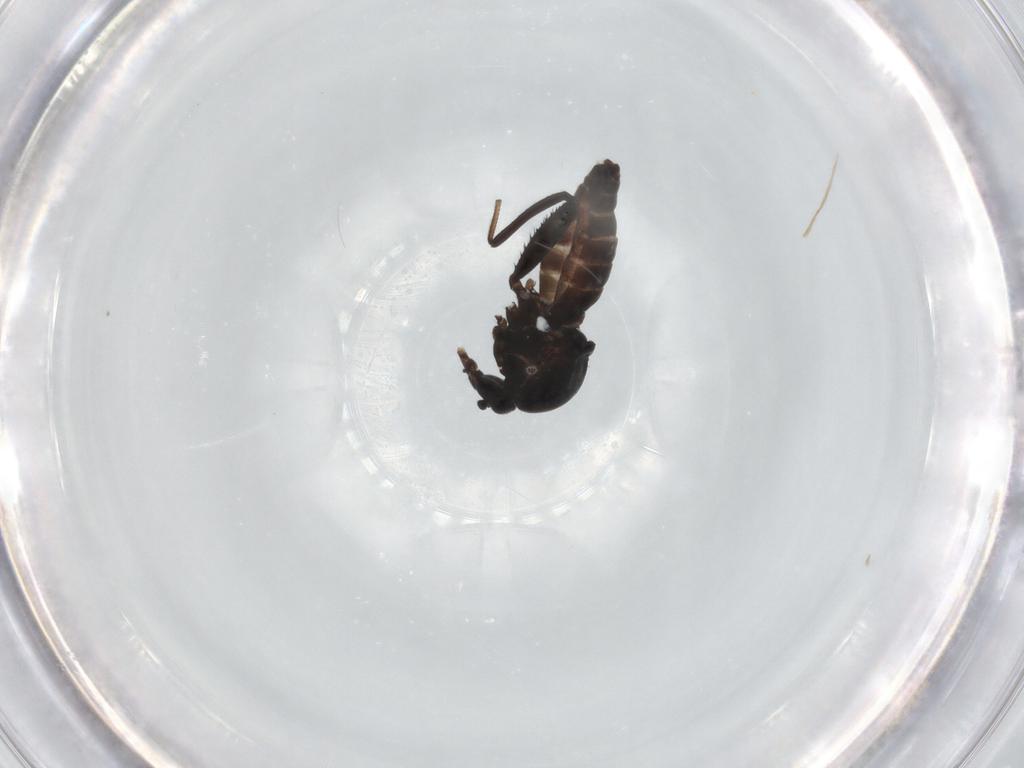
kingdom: Animalia
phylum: Arthropoda
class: Insecta
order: Diptera
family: Ceratopogonidae
